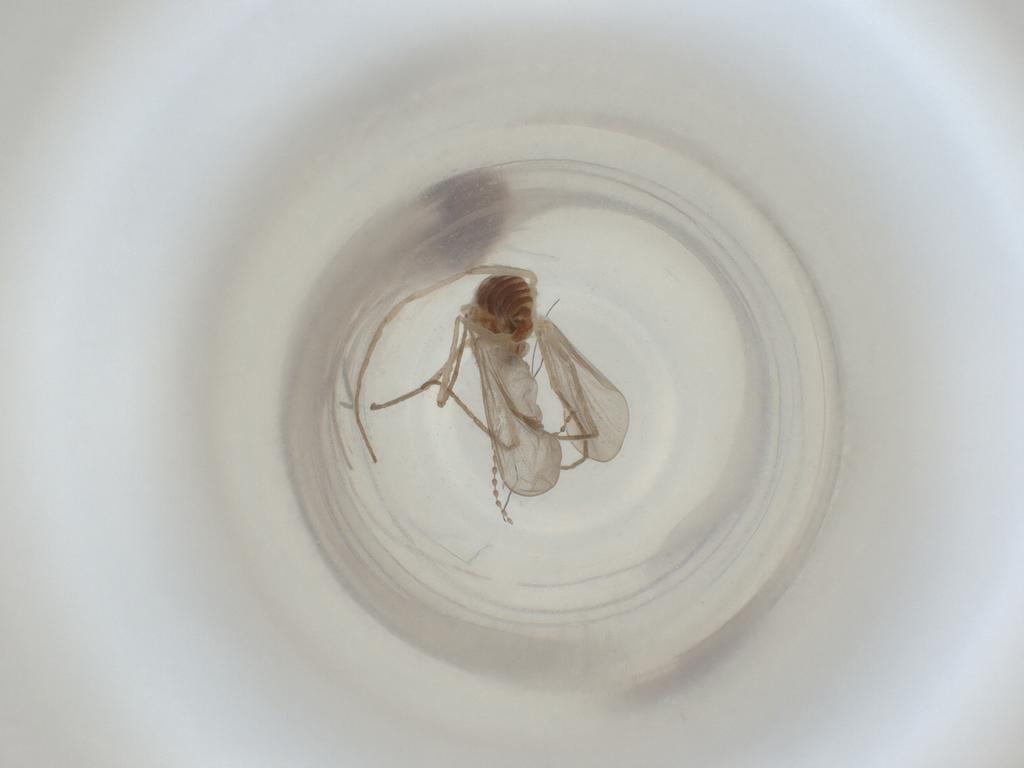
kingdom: Animalia
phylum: Arthropoda
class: Insecta
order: Diptera
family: Cecidomyiidae
